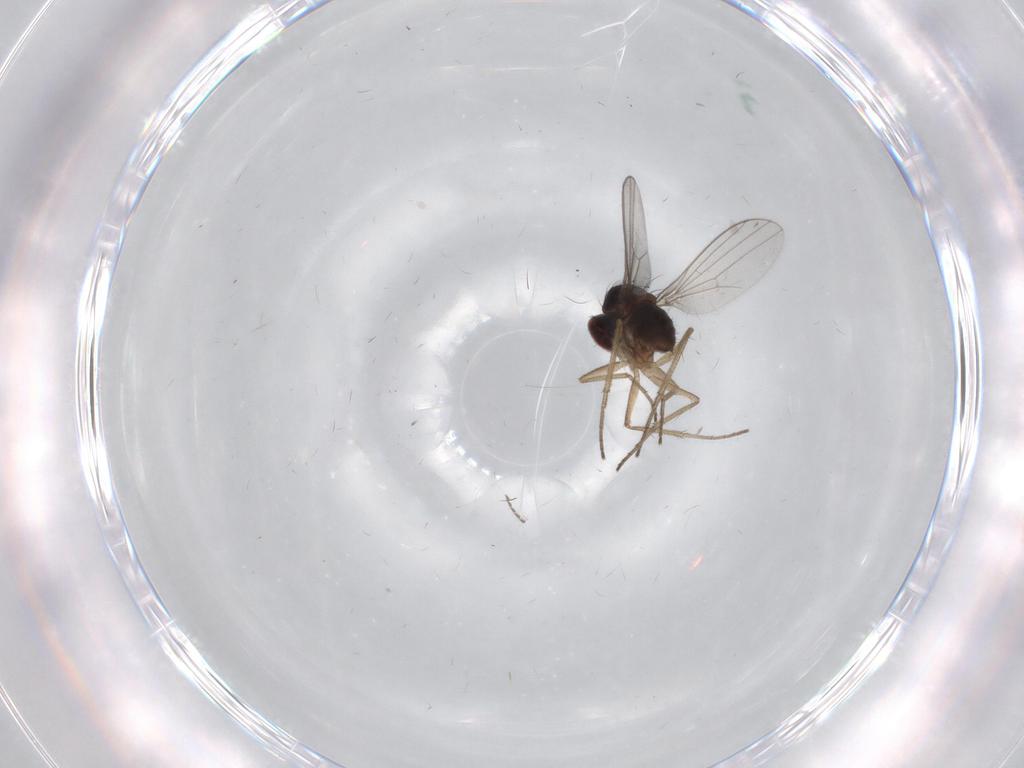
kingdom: Animalia
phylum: Arthropoda
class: Insecta
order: Diptera
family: Dolichopodidae
